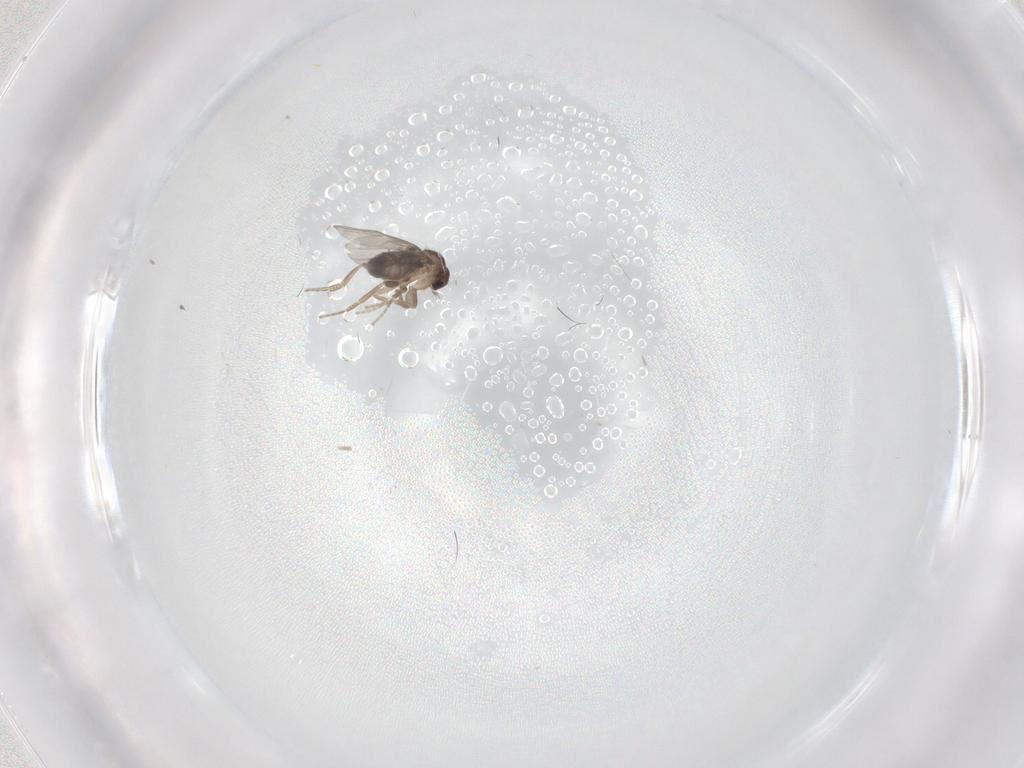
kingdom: Animalia
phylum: Arthropoda
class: Insecta
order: Diptera
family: Phoridae
